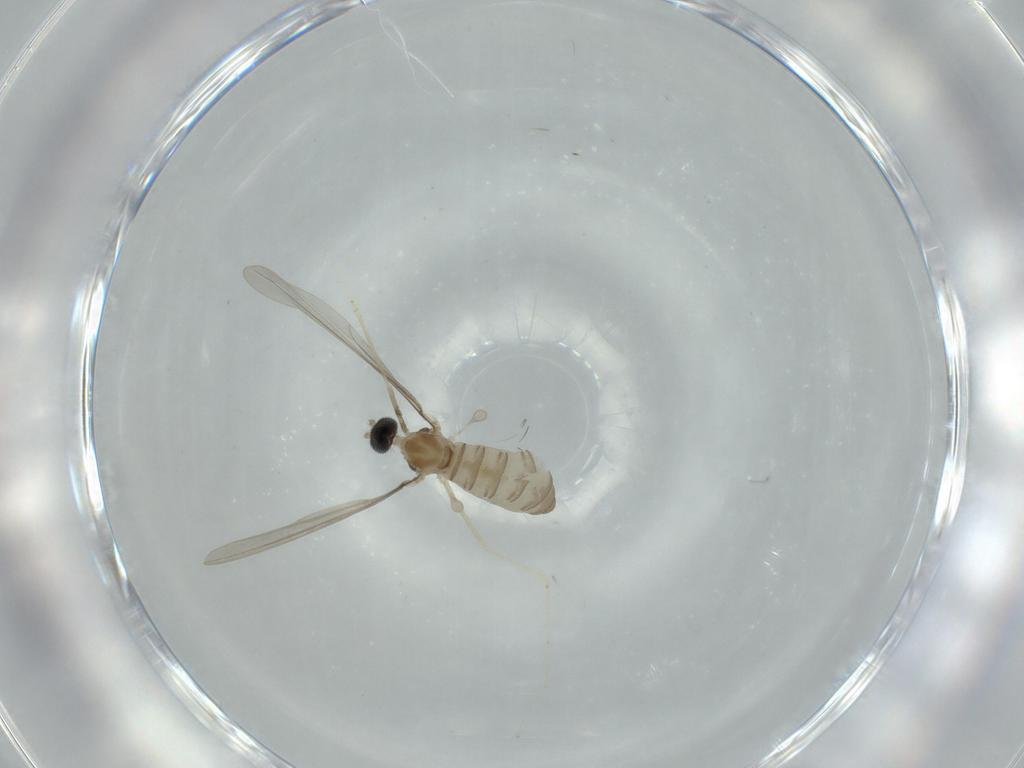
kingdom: Animalia
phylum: Arthropoda
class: Insecta
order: Diptera
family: Cecidomyiidae
